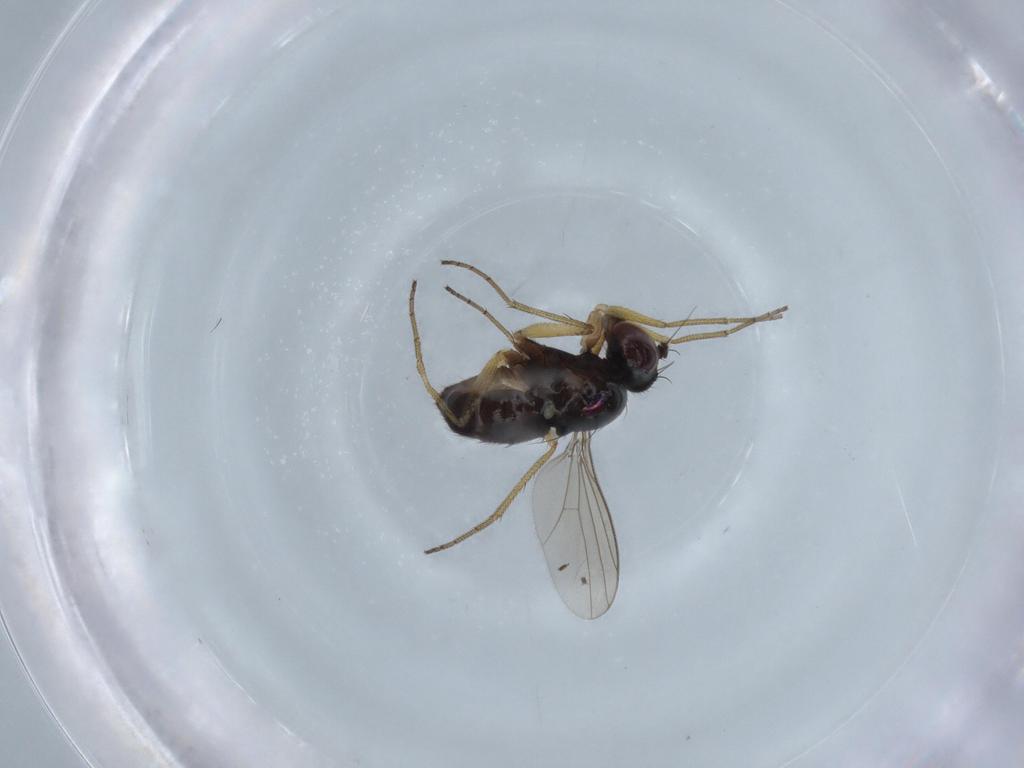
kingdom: Animalia
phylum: Arthropoda
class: Insecta
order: Diptera
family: Dolichopodidae
